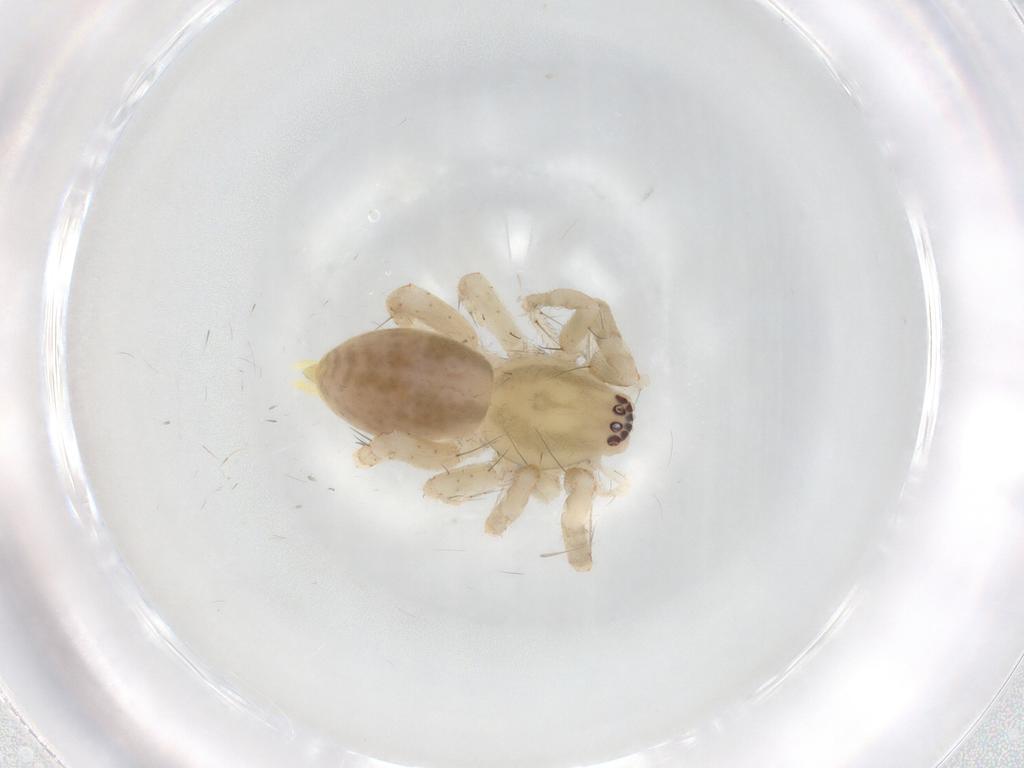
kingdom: Animalia
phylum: Arthropoda
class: Arachnida
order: Araneae
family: Anyphaenidae
